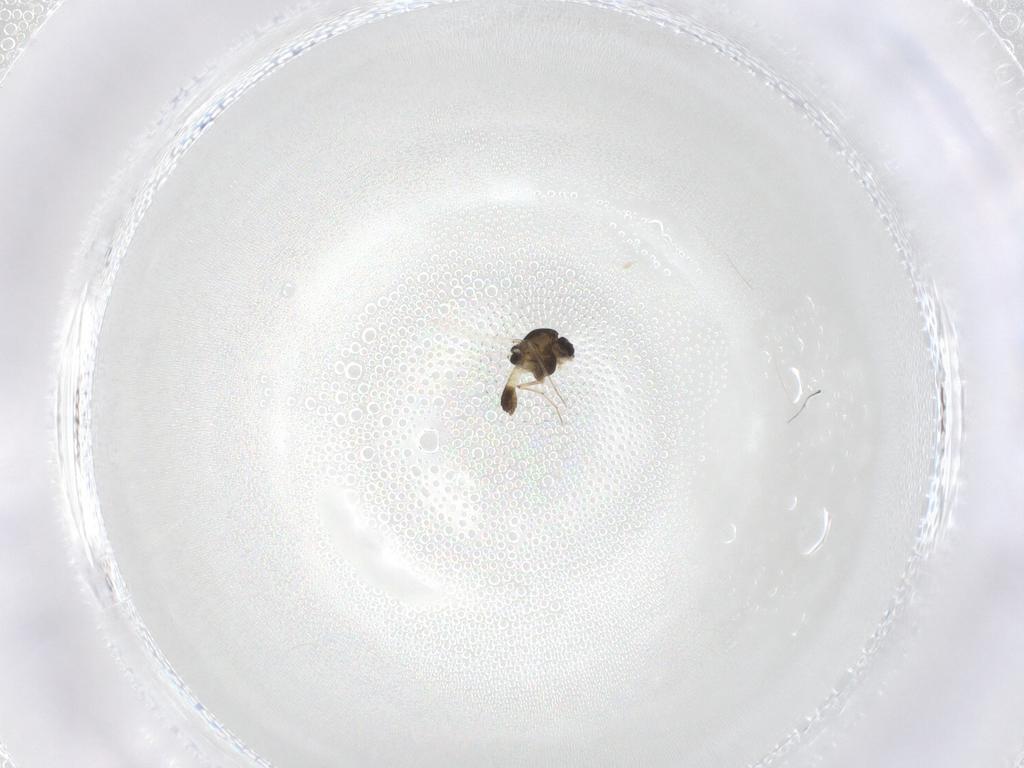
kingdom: Animalia
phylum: Arthropoda
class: Insecta
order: Diptera
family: Chironomidae
